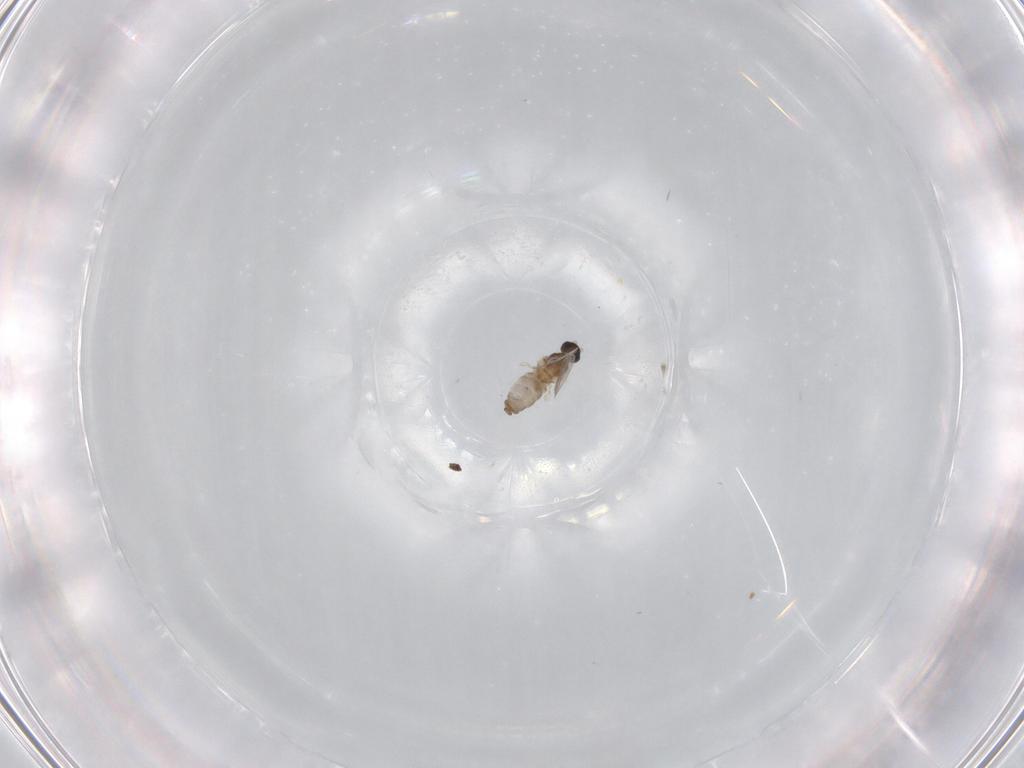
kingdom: Animalia
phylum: Arthropoda
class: Insecta
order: Diptera
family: Cecidomyiidae
